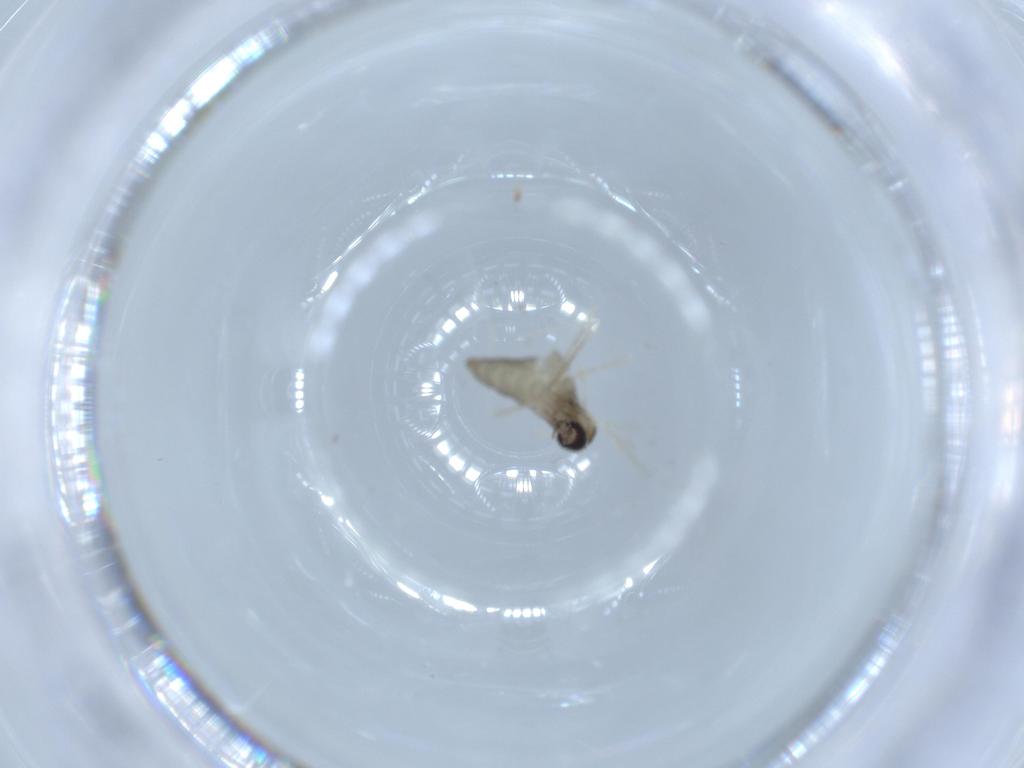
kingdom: Animalia
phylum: Arthropoda
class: Insecta
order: Diptera
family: Cecidomyiidae
